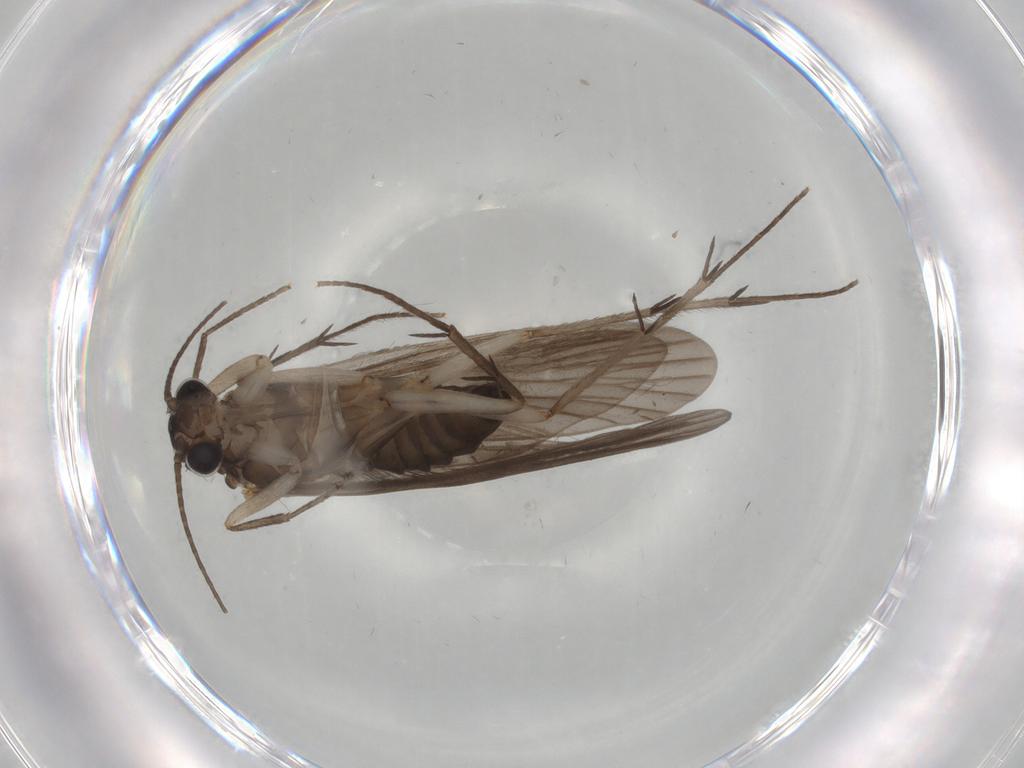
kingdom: Animalia
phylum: Arthropoda
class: Insecta
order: Trichoptera
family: Philopotamidae
